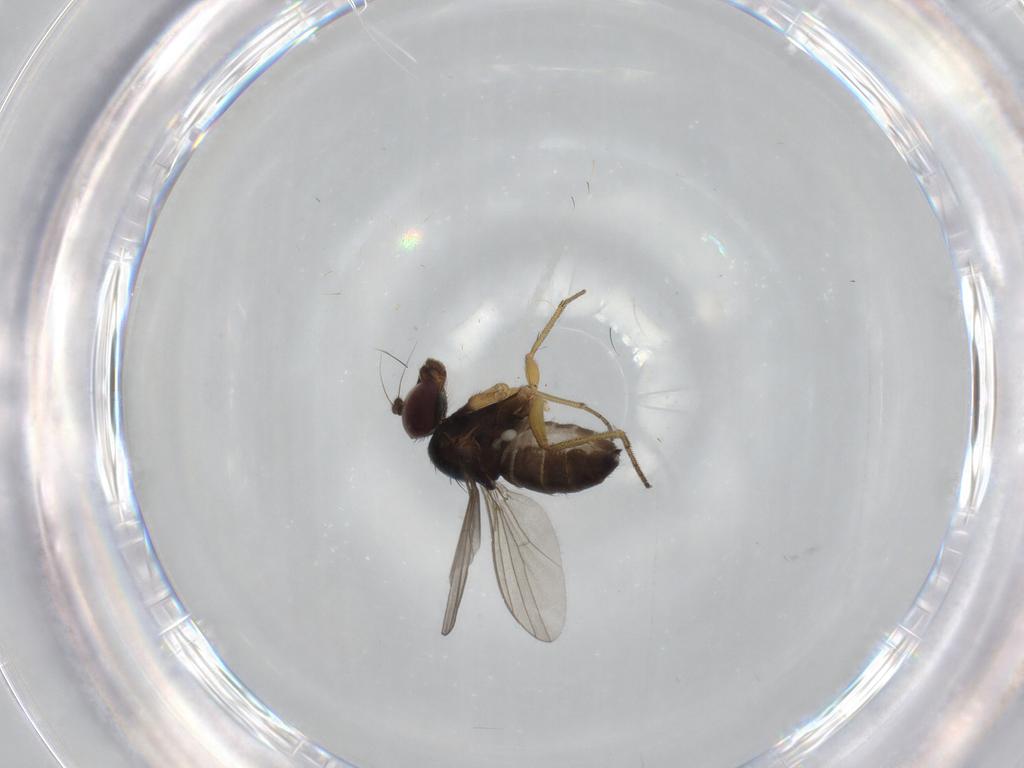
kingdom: Animalia
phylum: Arthropoda
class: Insecta
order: Diptera
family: Dolichopodidae
